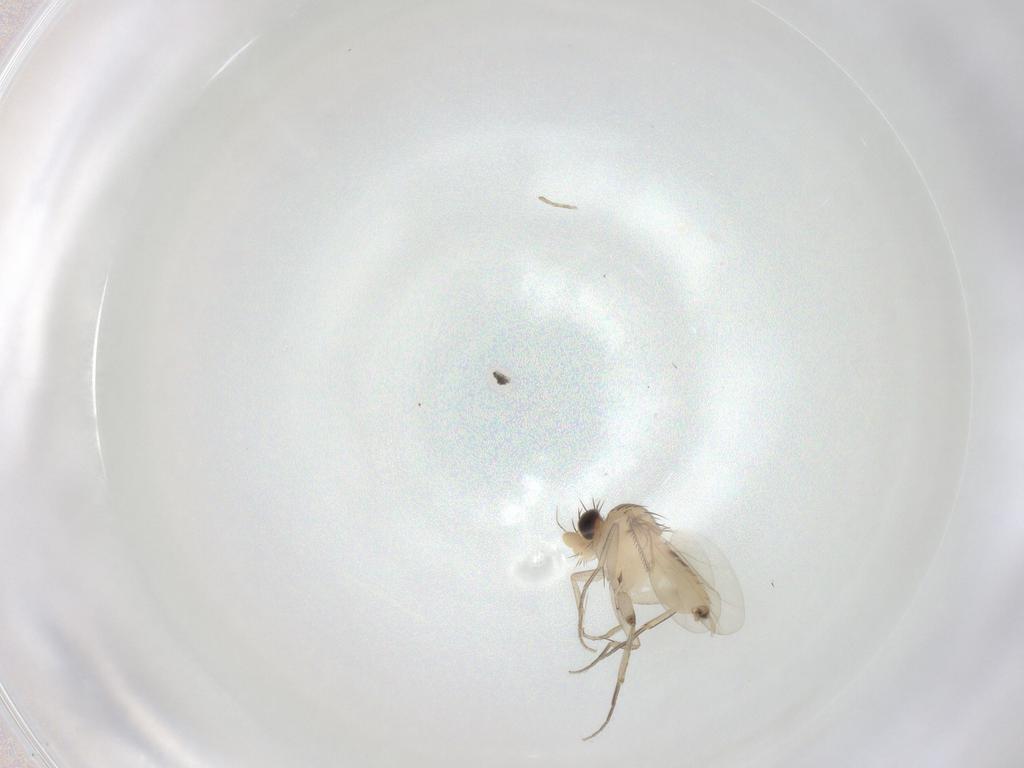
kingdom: Animalia
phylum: Arthropoda
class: Insecta
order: Diptera
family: Phoridae
